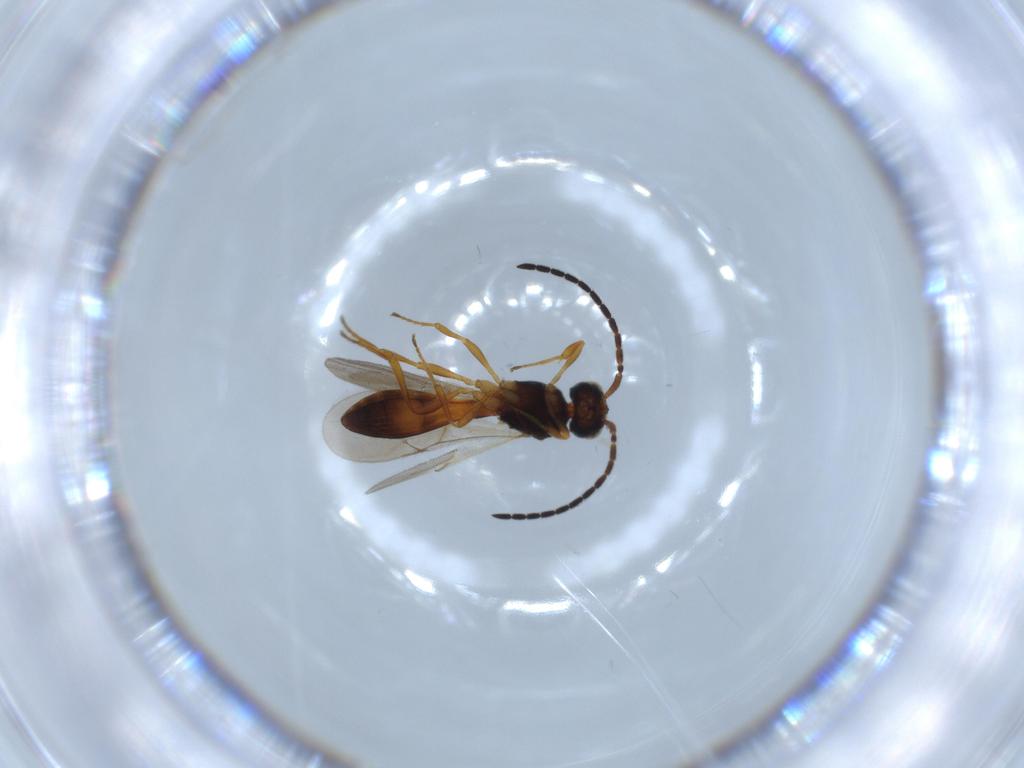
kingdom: Animalia
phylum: Arthropoda
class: Insecta
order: Hymenoptera
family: Scelionidae
